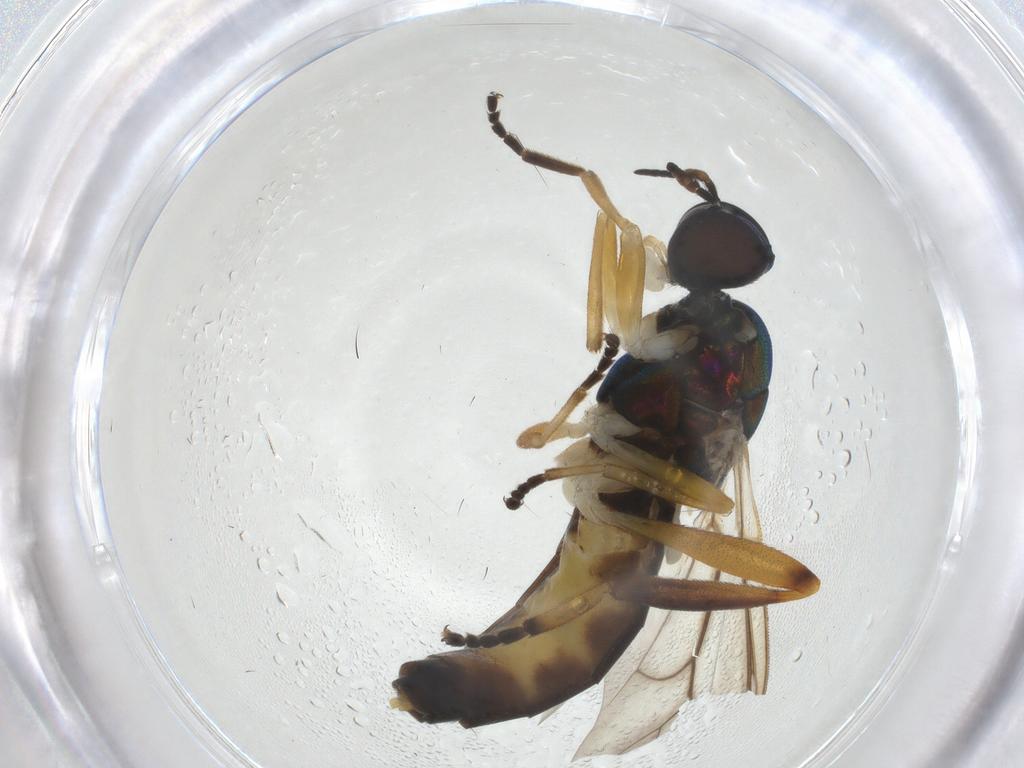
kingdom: Animalia
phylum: Arthropoda
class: Insecta
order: Diptera
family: Stratiomyidae
